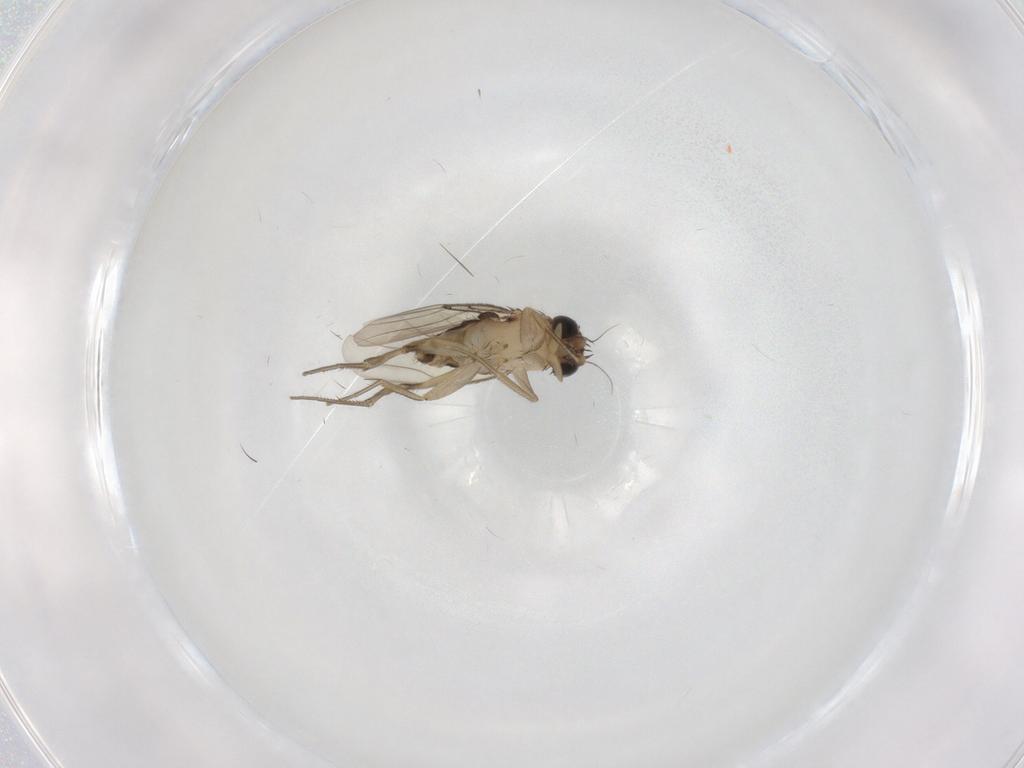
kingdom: Animalia
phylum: Arthropoda
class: Insecta
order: Diptera
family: Phoridae
